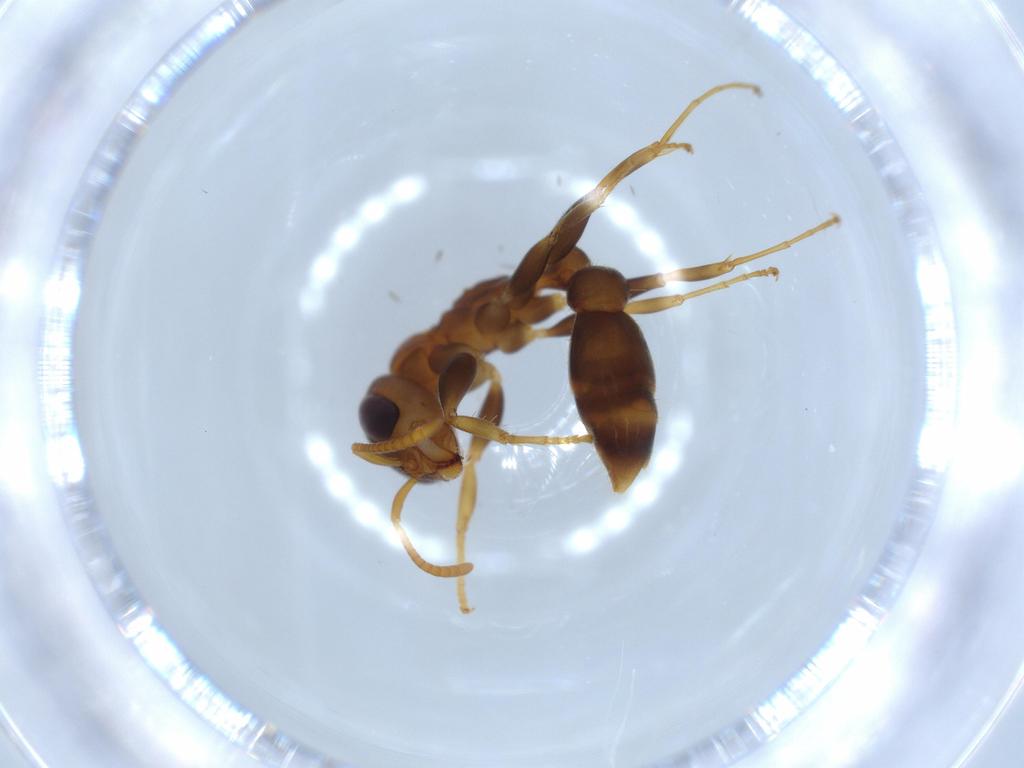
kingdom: Animalia
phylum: Arthropoda
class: Insecta
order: Hymenoptera
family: Formicidae
